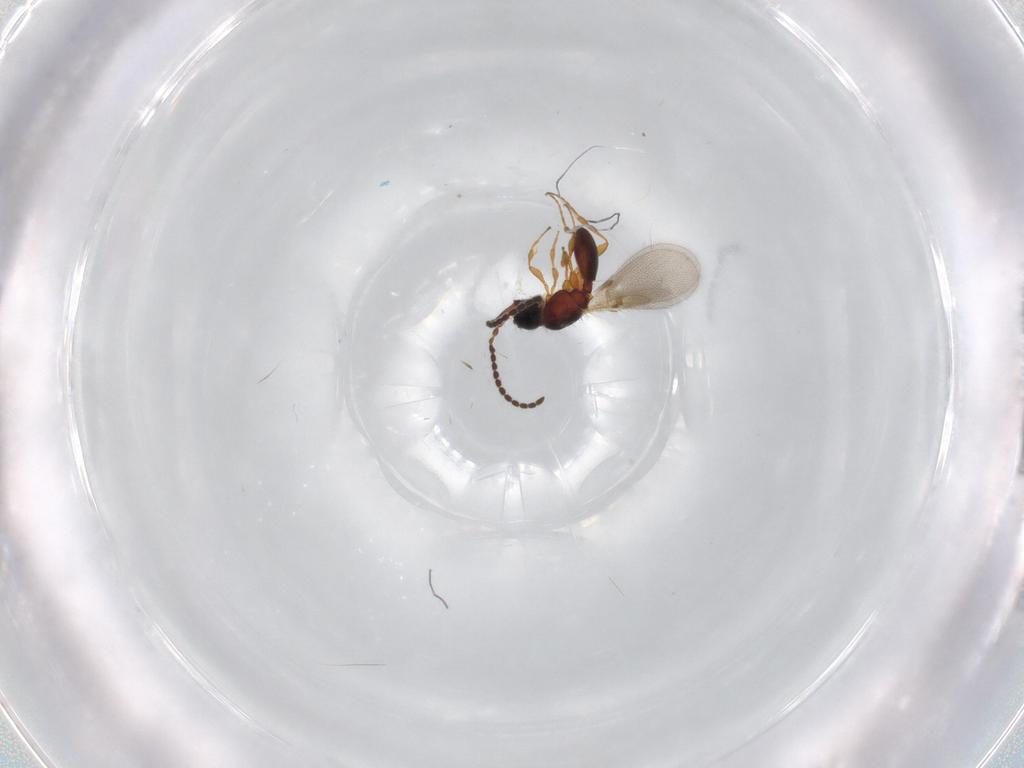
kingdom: Animalia
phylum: Arthropoda
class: Insecta
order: Hymenoptera
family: Diapriidae
